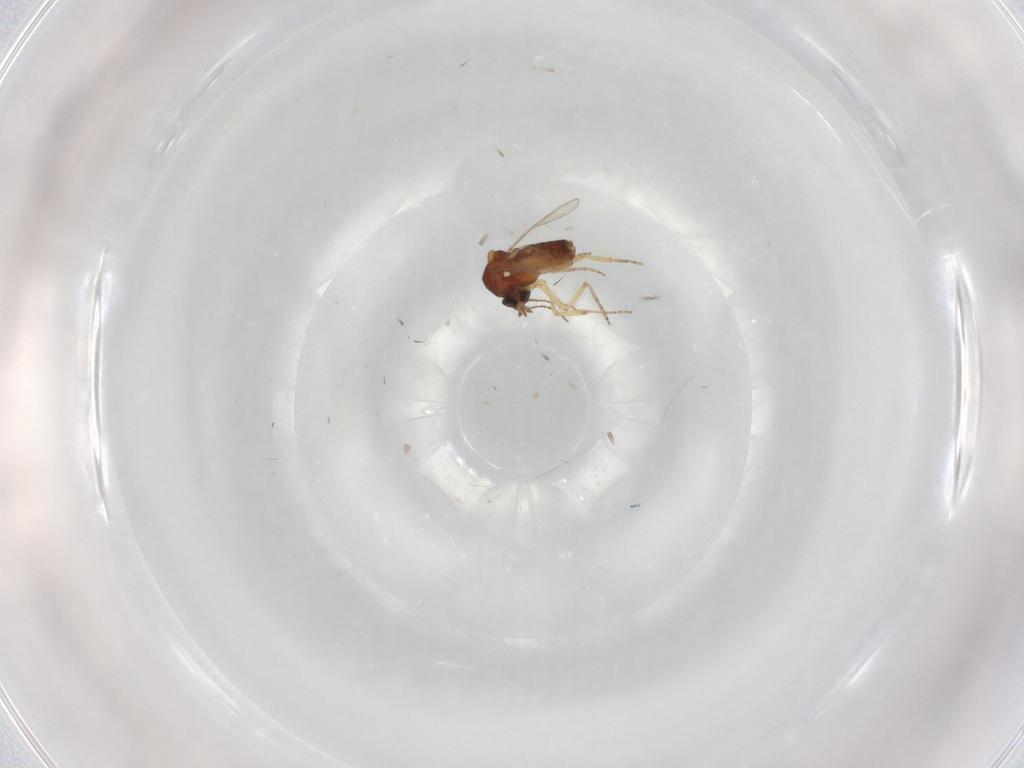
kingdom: Animalia
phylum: Arthropoda
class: Insecta
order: Diptera
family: Ceratopogonidae
